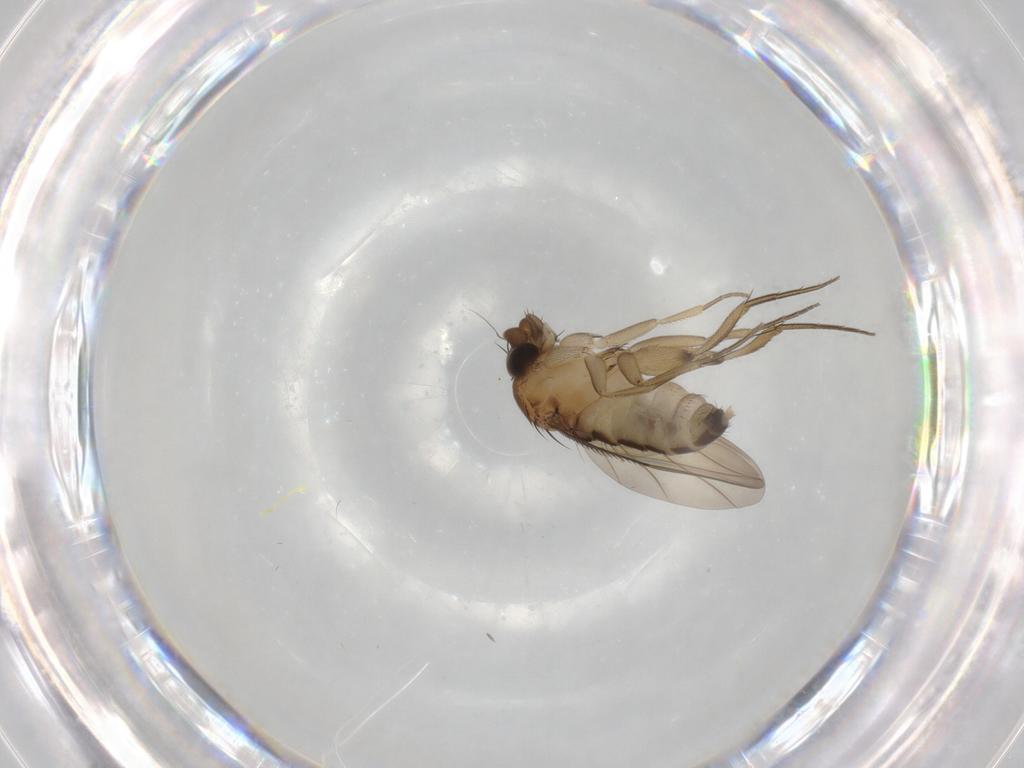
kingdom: Animalia
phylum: Arthropoda
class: Insecta
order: Diptera
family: Phoridae
